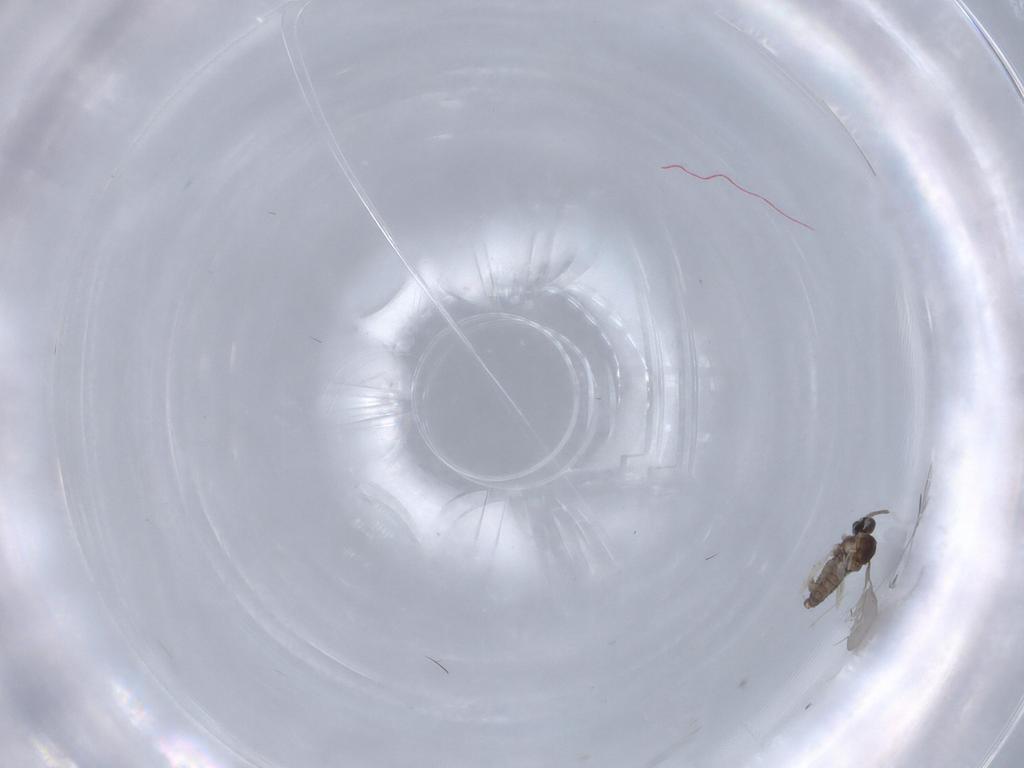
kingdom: Animalia
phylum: Arthropoda
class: Insecta
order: Diptera
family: Cecidomyiidae
